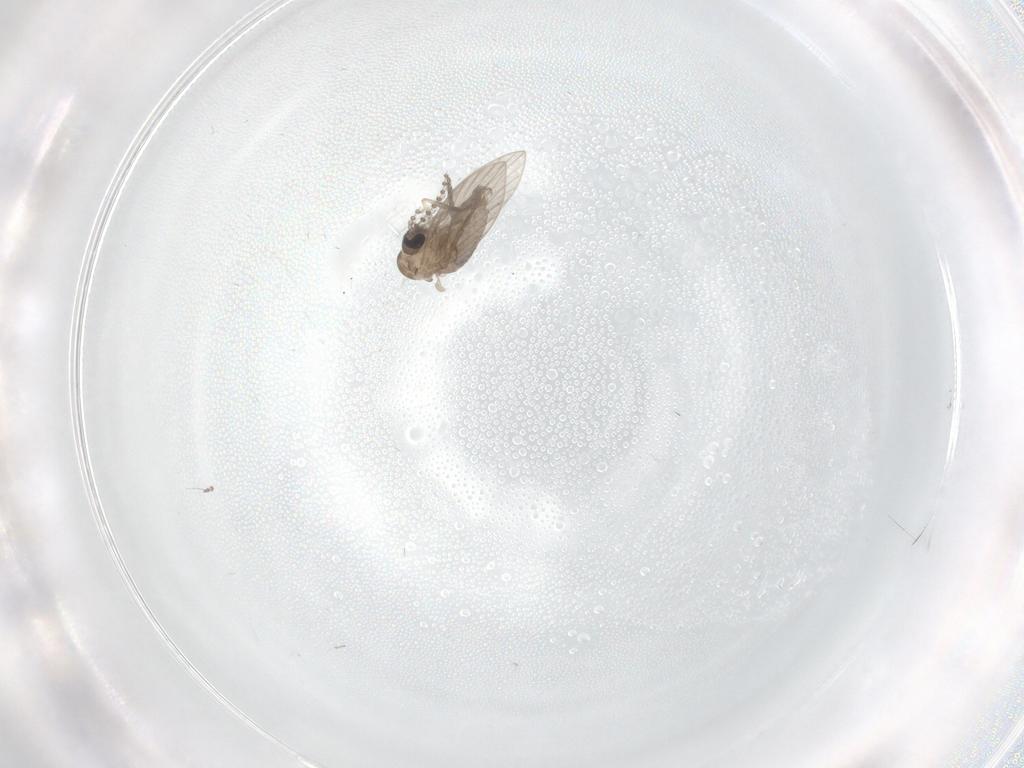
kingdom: Animalia
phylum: Arthropoda
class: Insecta
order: Diptera
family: Psychodidae
